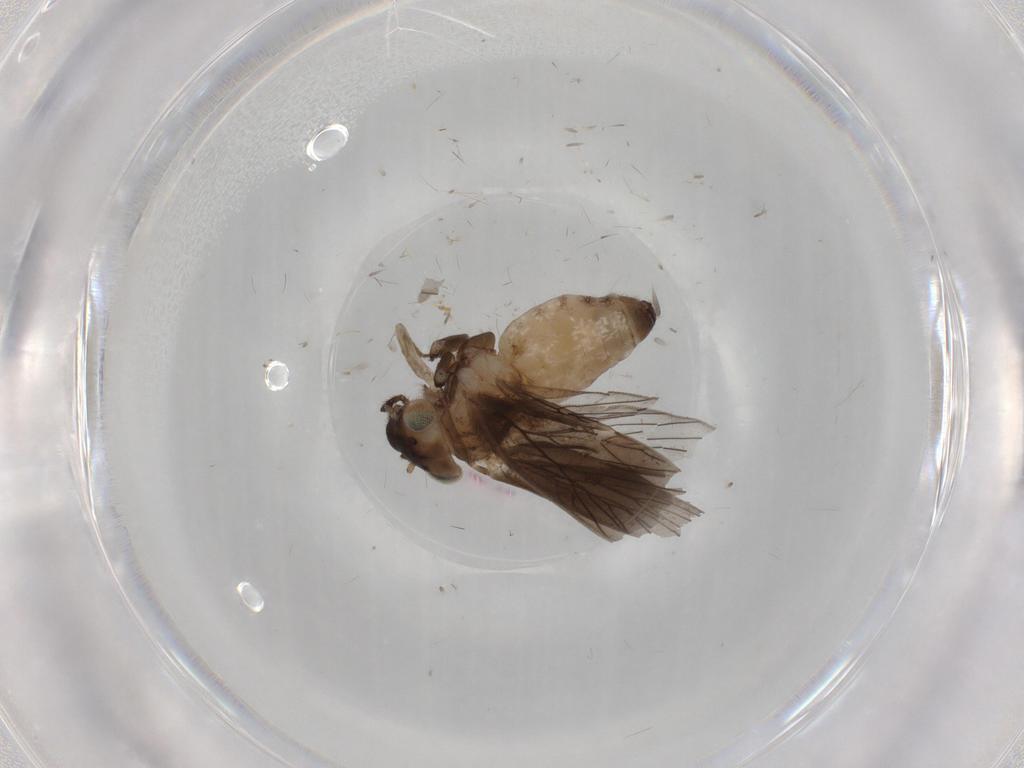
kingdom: Animalia
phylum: Arthropoda
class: Insecta
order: Psocodea
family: Lepidopsocidae
